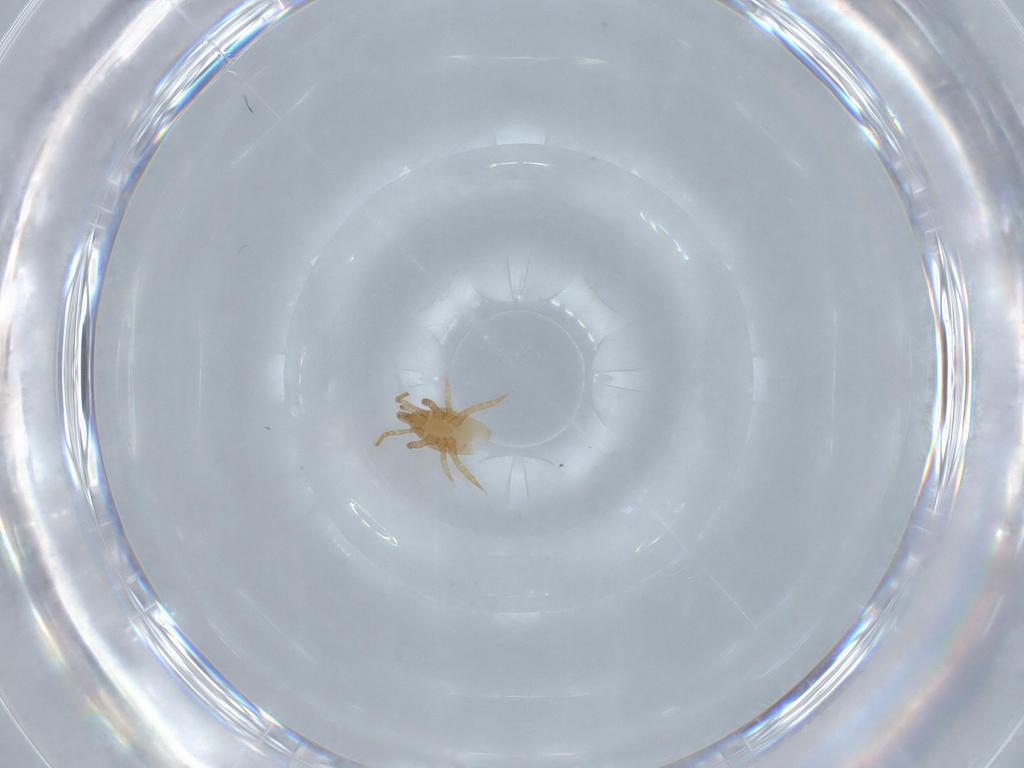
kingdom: Animalia
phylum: Arthropoda
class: Arachnida
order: Mesostigmata
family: Parasitidae
